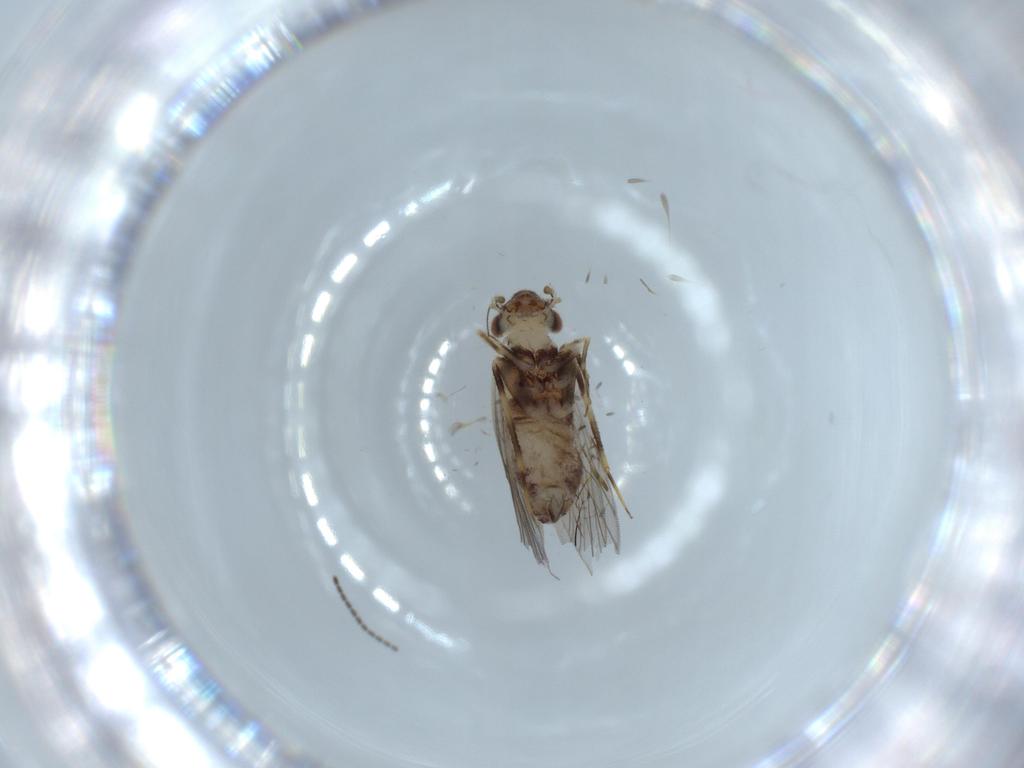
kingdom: Animalia
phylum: Arthropoda
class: Insecta
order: Psocodea
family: Lepidopsocidae
